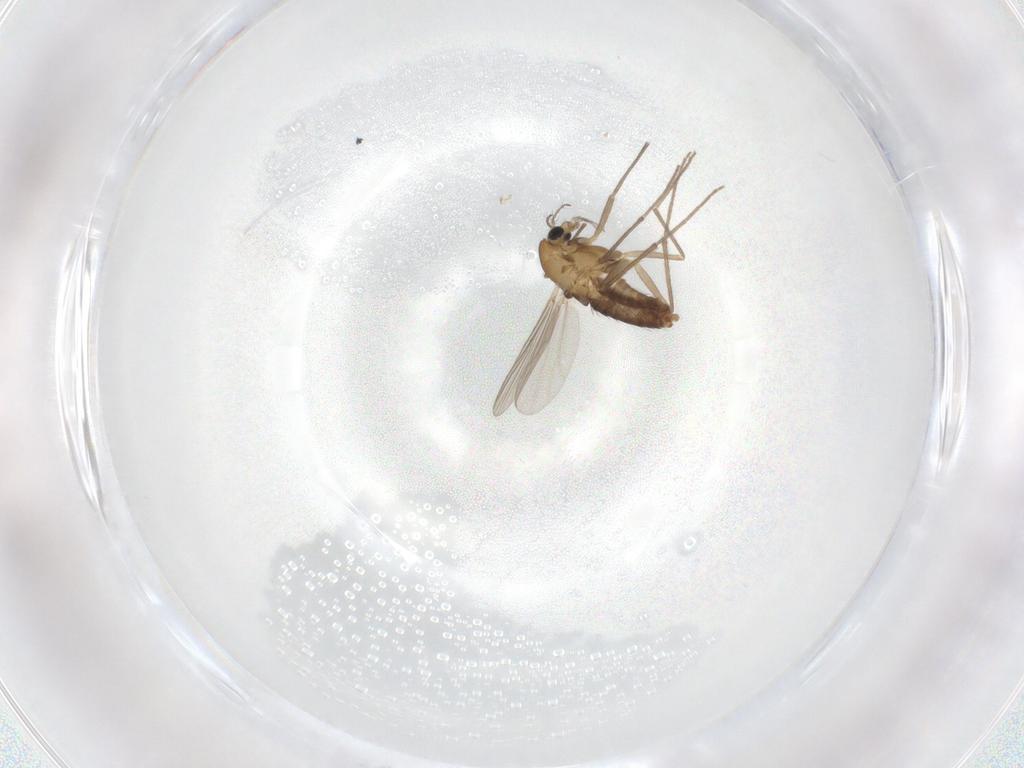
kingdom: Animalia
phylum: Arthropoda
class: Insecta
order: Diptera
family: Chironomidae
